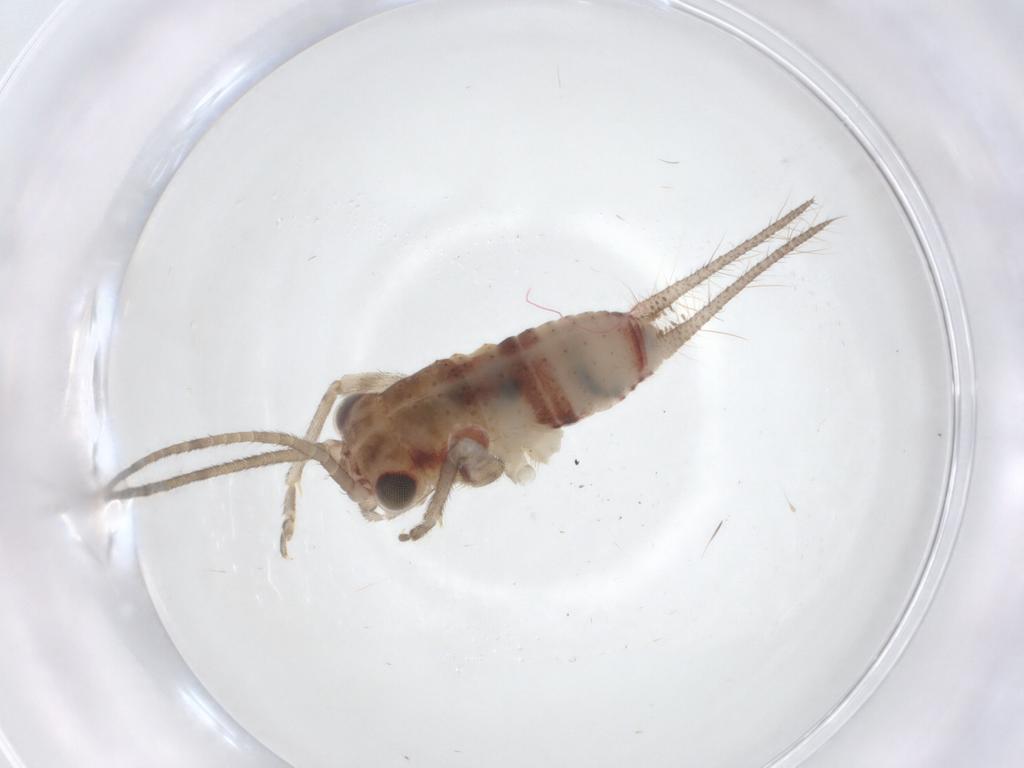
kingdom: Animalia
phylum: Arthropoda
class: Insecta
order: Orthoptera
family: Trigonidiidae
